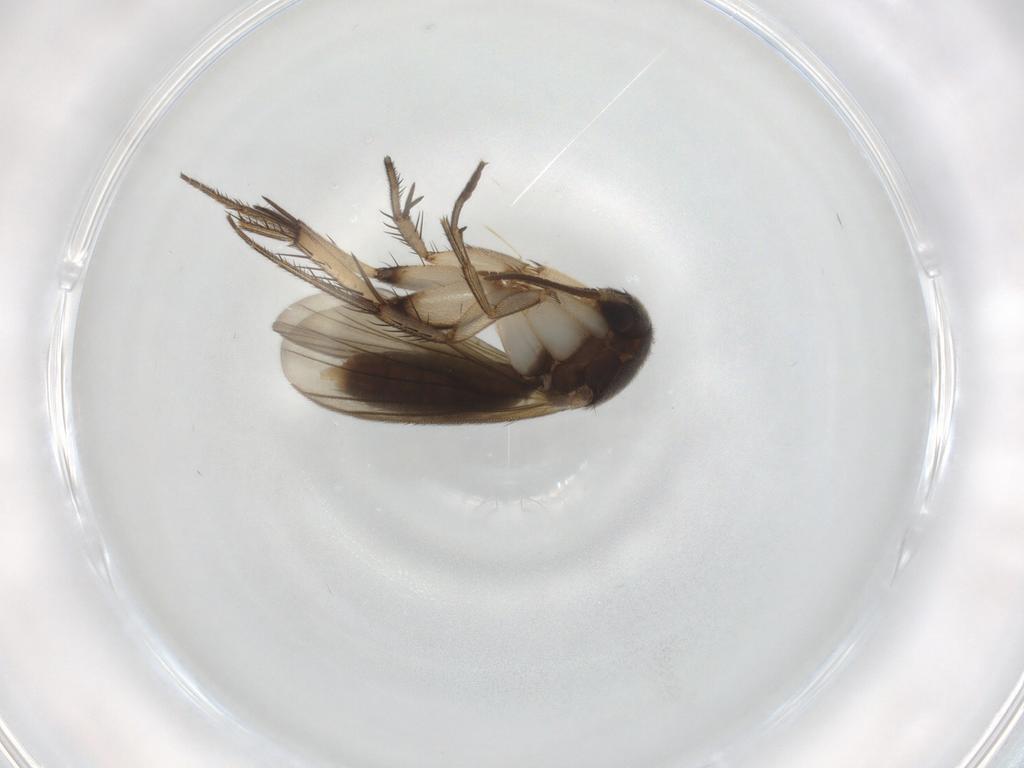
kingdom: Animalia
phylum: Arthropoda
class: Insecta
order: Diptera
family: Mycetophilidae
